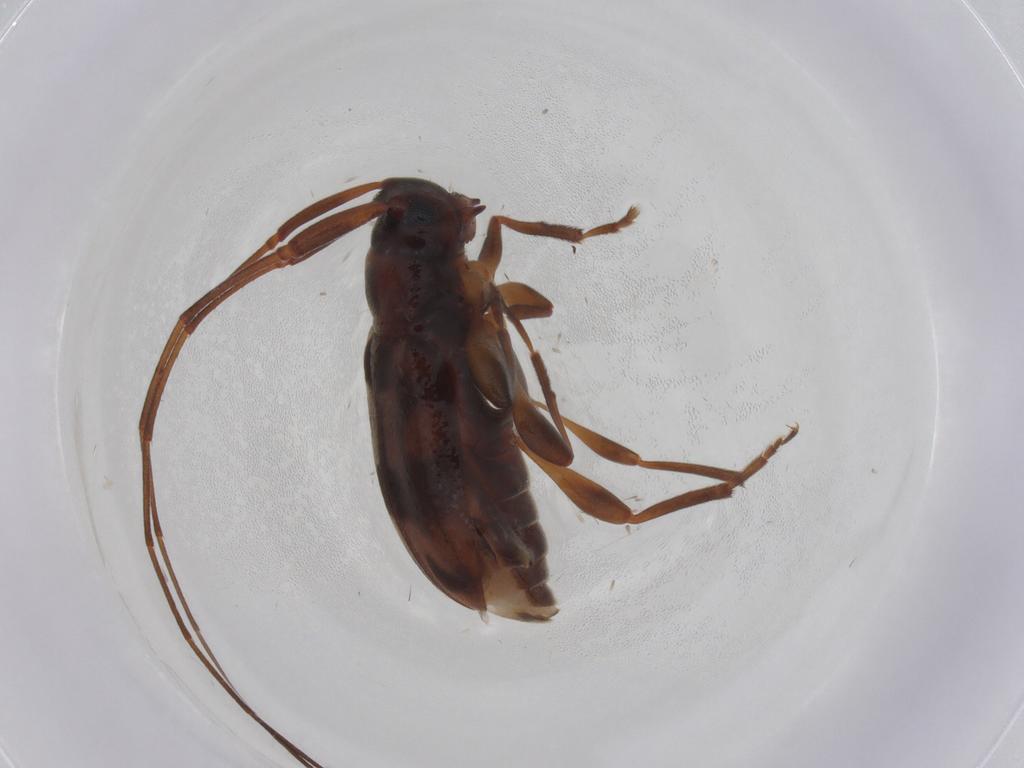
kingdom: Animalia
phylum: Arthropoda
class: Insecta
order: Coleoptera
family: Cerambycidae
